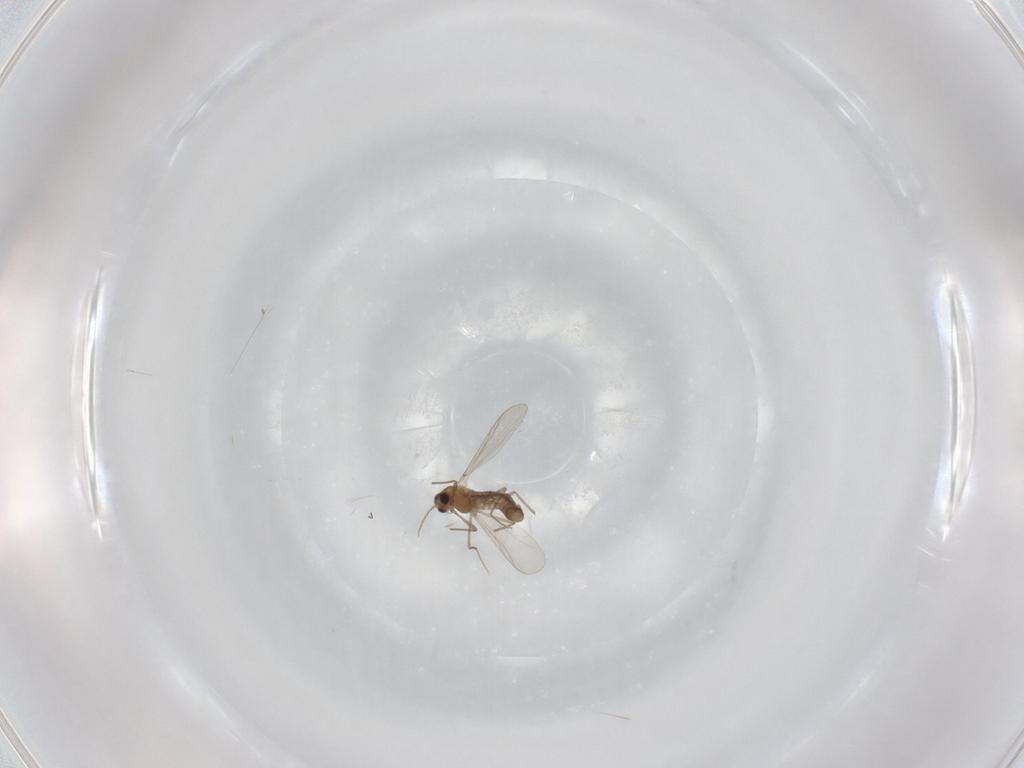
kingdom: Animalia
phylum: Arthropoda
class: Insecta
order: Diptera
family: Chironomidae
